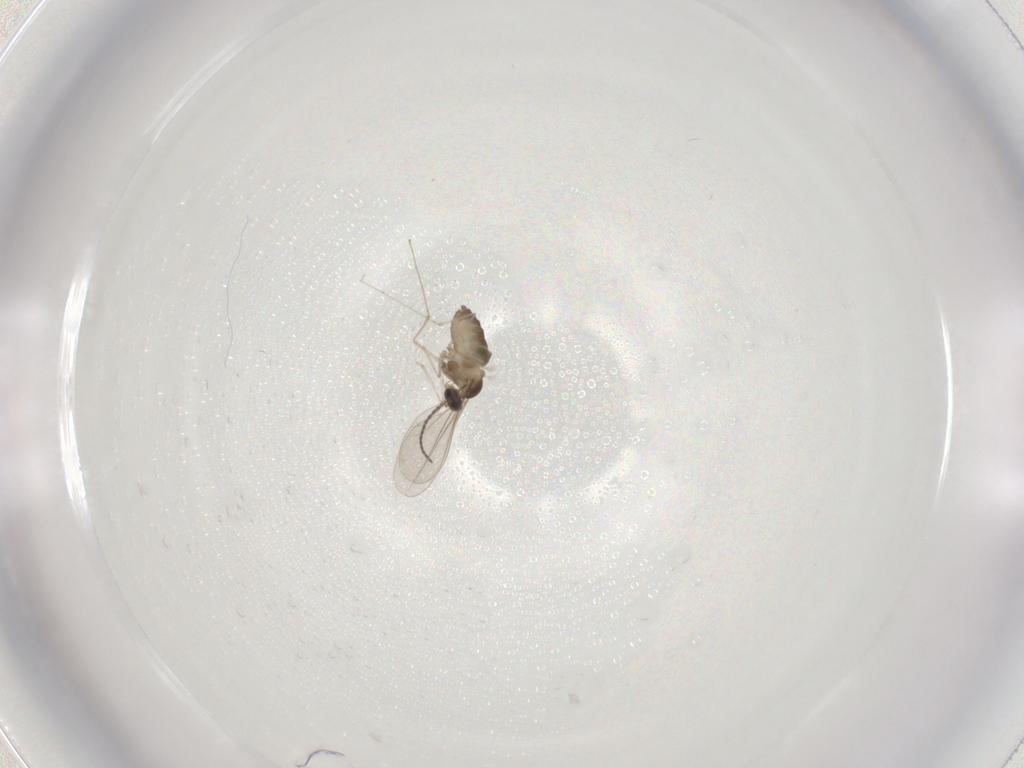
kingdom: Animalia
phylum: Arthropoda
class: Insecta
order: Diptera
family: Cecidomyiidae
